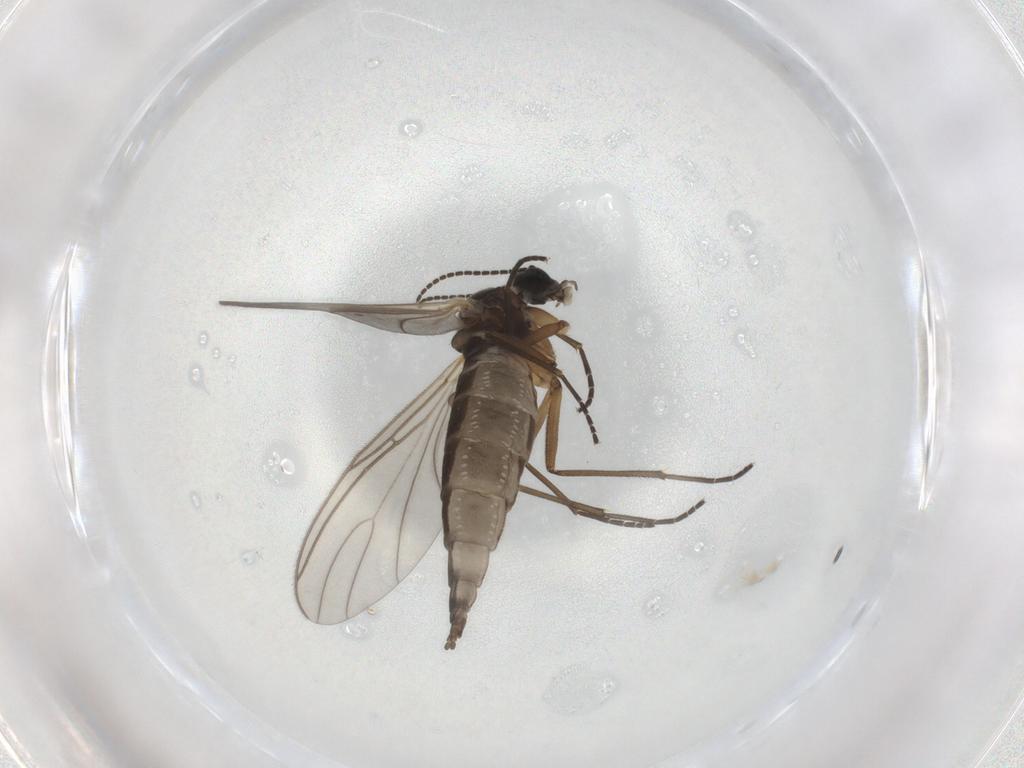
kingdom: Animalia
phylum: Arthropoda
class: Insecta
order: Diptera
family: Sciaridae
